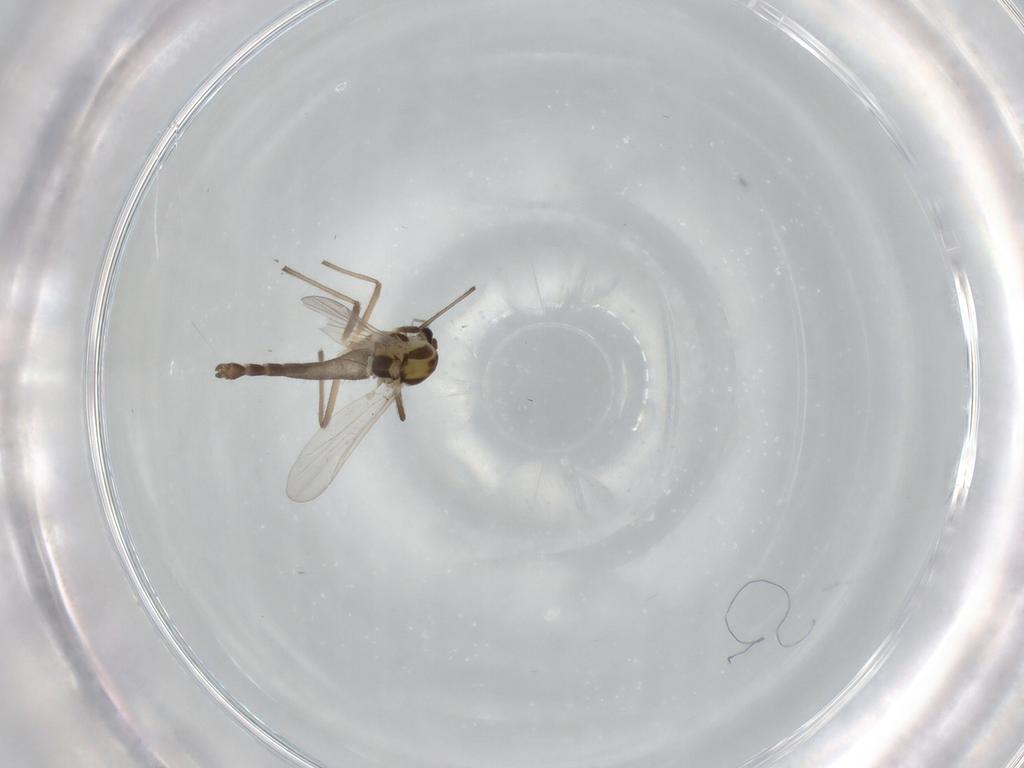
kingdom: Animalia
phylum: Arthropoda
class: Insecta
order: Diptera
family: Chironomidae
